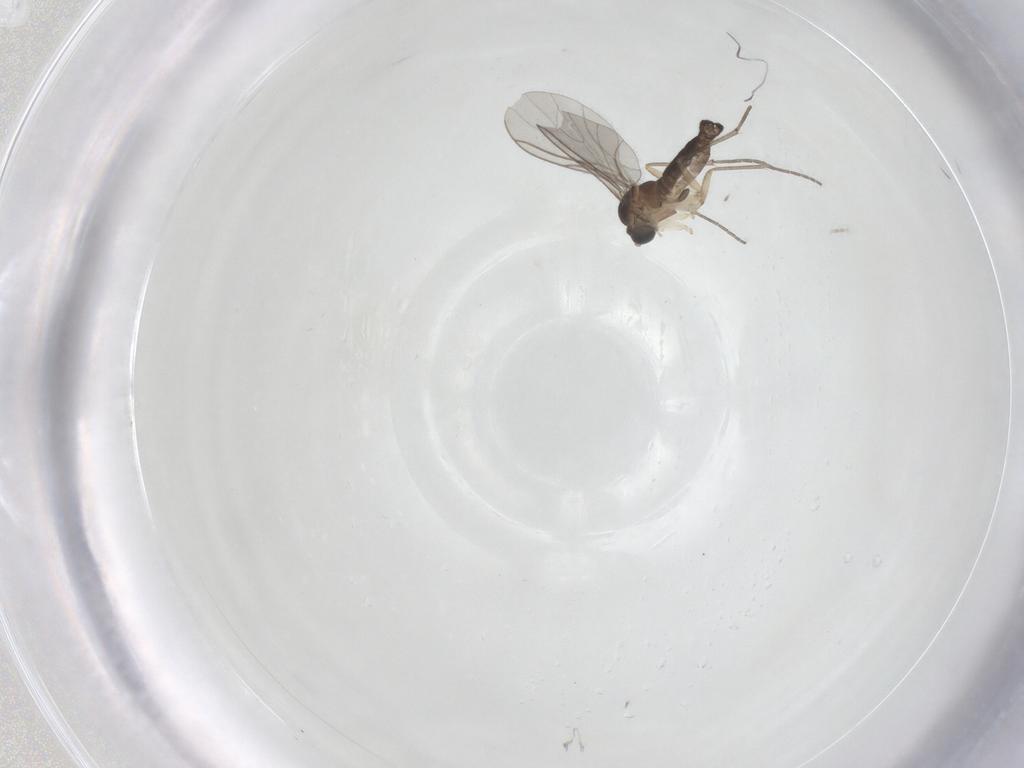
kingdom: Animalia
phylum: Arthropoda
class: Insecta
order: Diptera
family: Sciaridae
